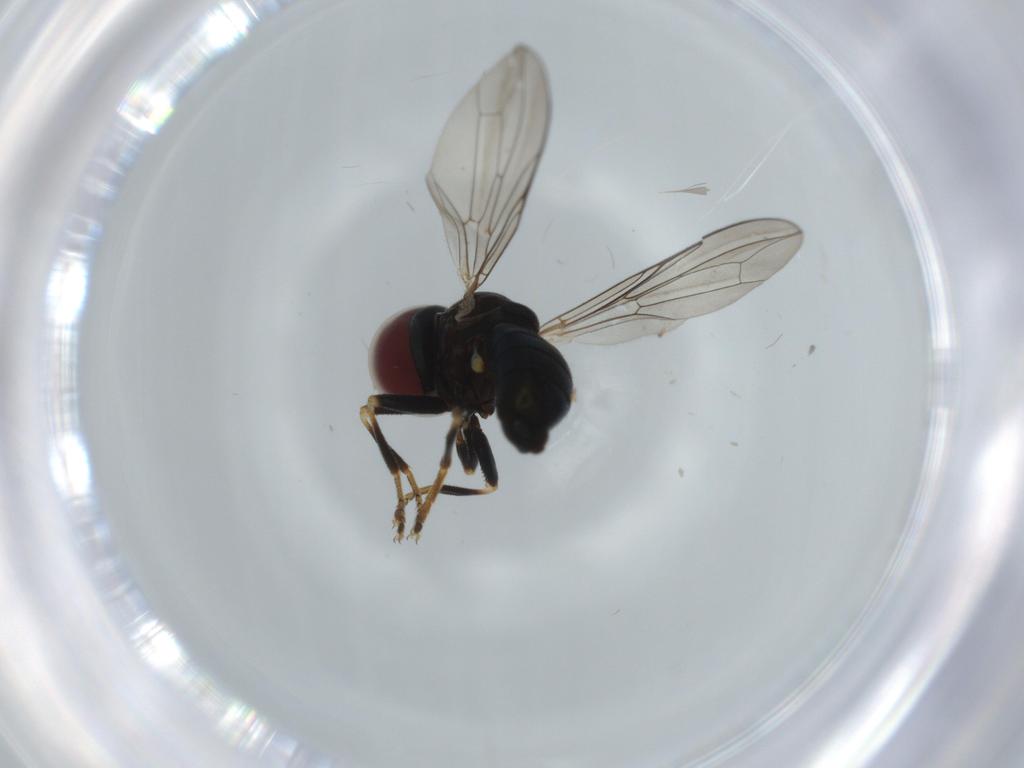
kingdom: Animalia
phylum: Arthropoda
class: Insecta
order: Diptera
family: Pipunculidae
